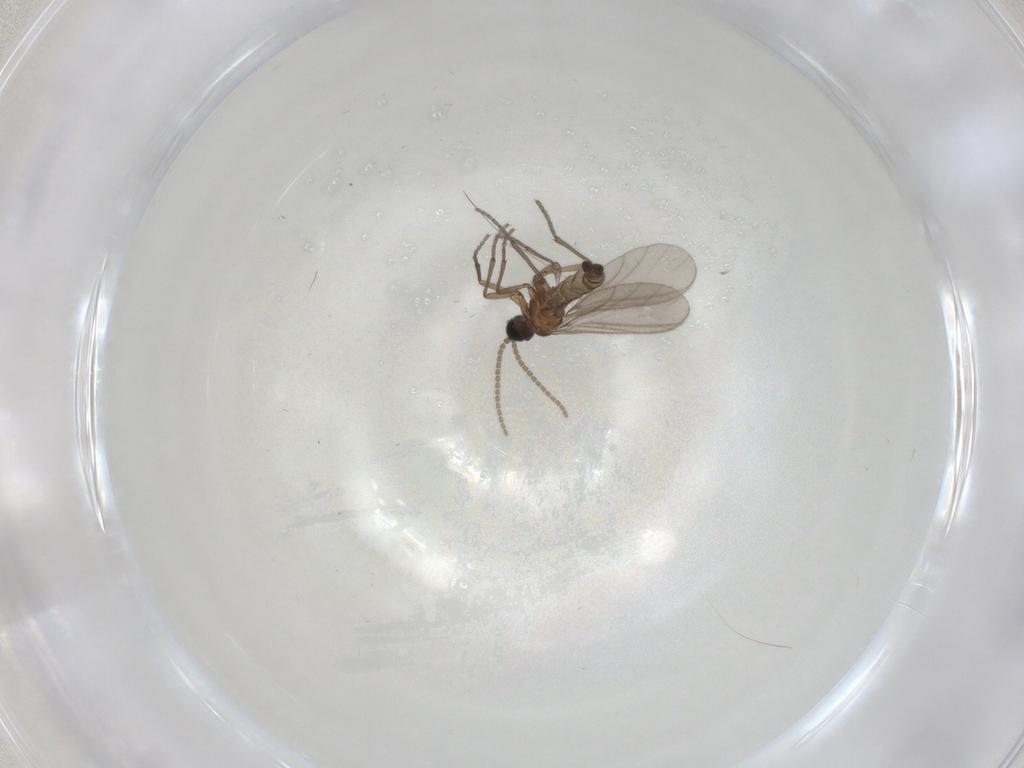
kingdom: Animalia
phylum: Arthropoda
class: Insecta
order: Diptera
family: Sciaridae
